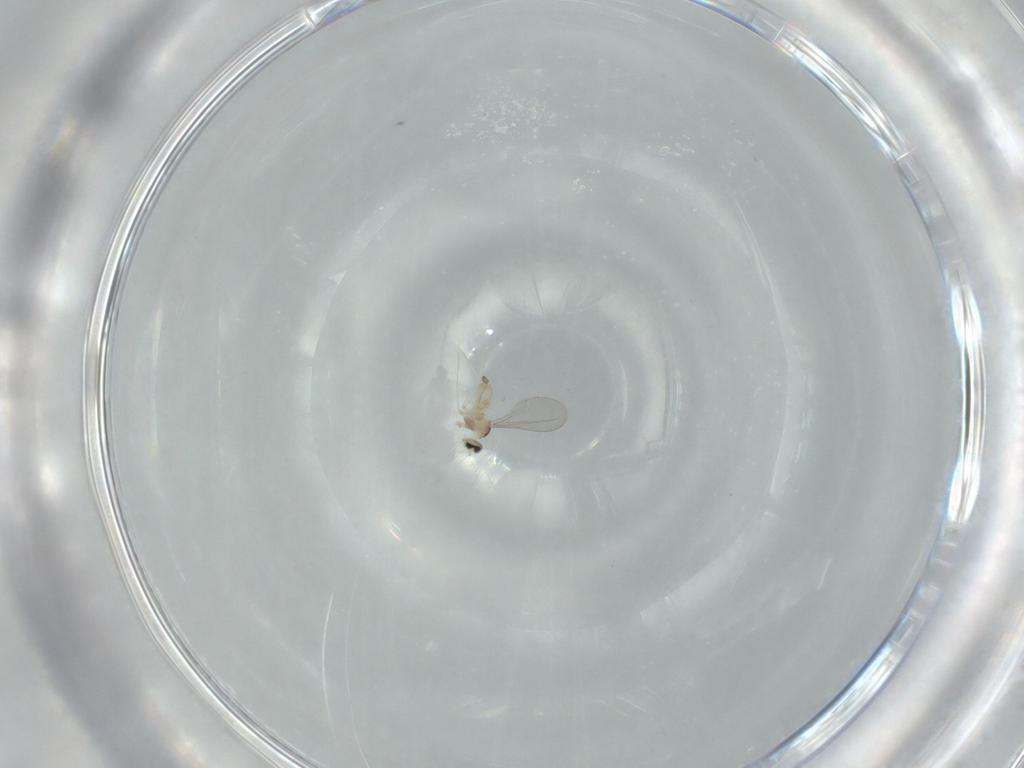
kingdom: Animalia
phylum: Arthropoda
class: Insecta
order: Diptera
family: Cecidomyiidae
